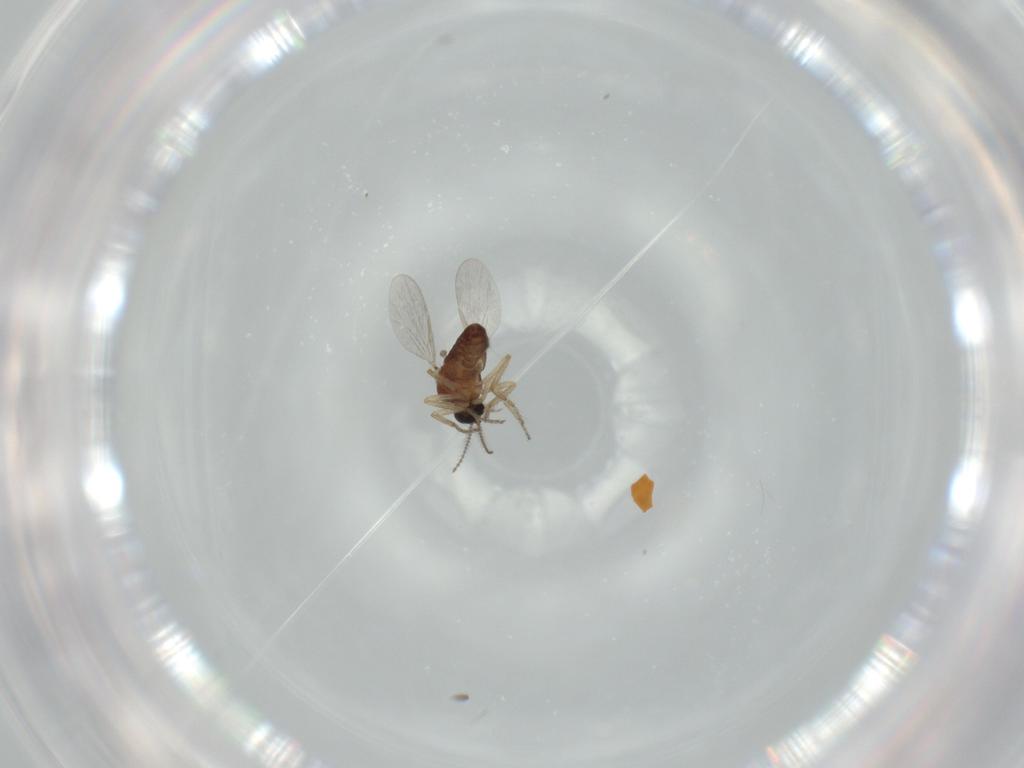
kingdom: Animalia
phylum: Arthropoda
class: Insecta
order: Diptera
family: Ceratopogonidae
